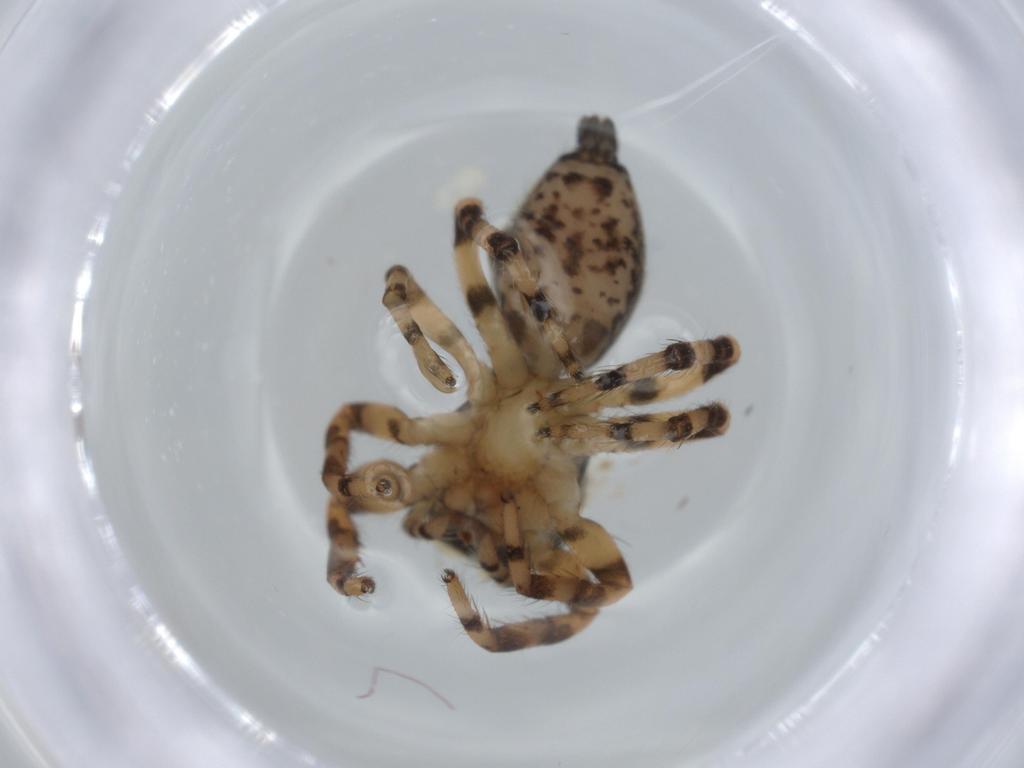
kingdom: Animalia
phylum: Arthropoda
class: Arachnida
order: Araneae
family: Salticidae
